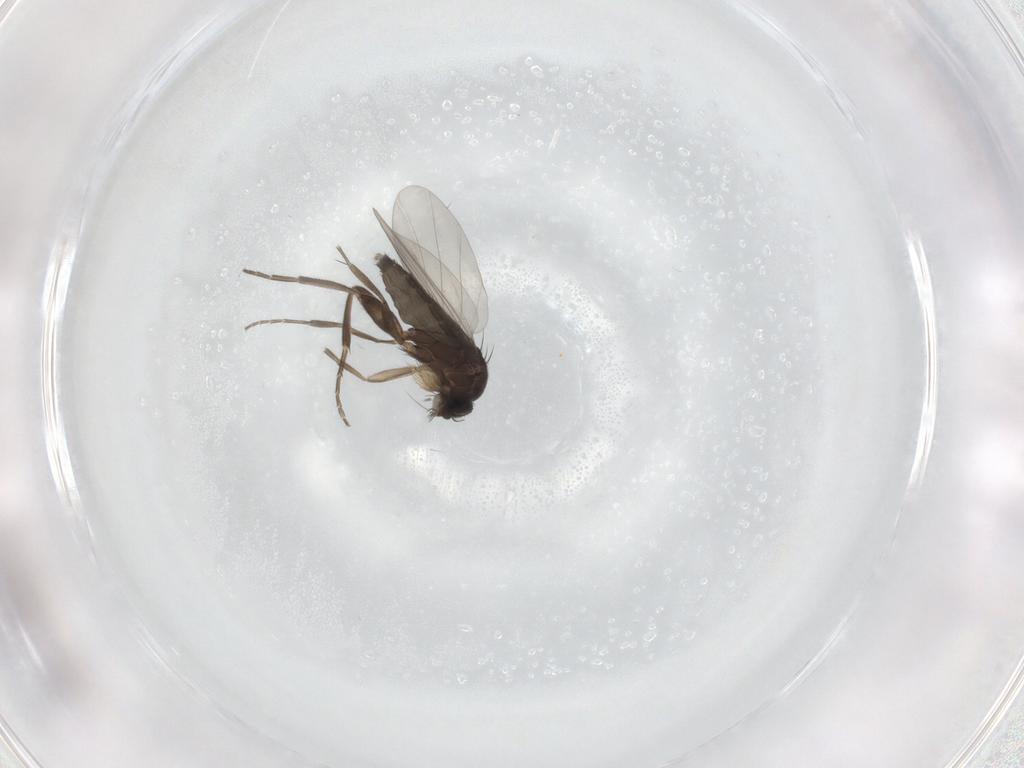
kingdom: Animalia
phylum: Arthropoda
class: Insecta
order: Diptera
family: Phoridae
